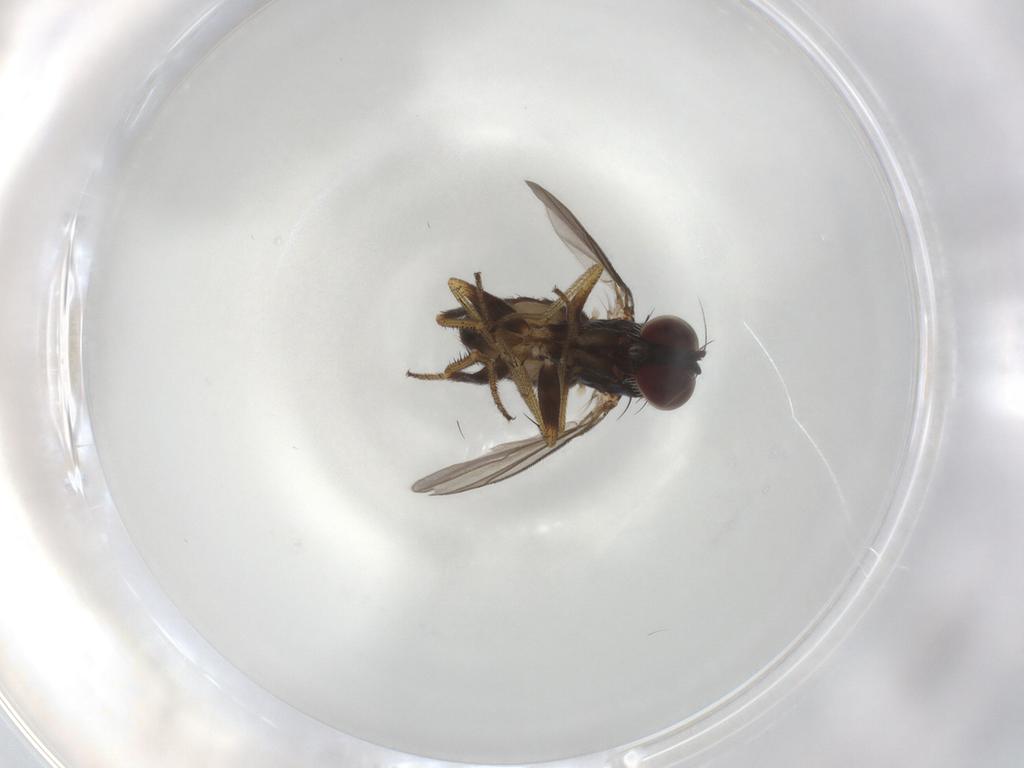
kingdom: Animalia
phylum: Arthropoda
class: Insecta
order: Diptera
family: Dolichopodidae
